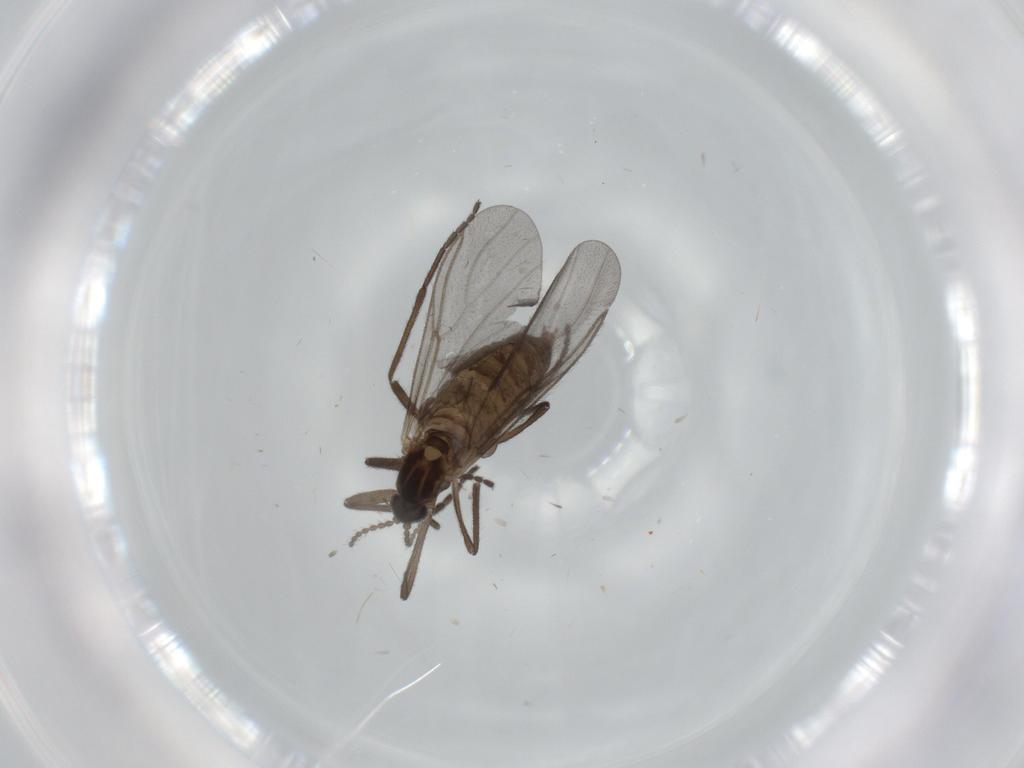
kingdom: Animalia
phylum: Arthropoda
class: Insecta
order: Diptera
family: Cecidomyiidae
